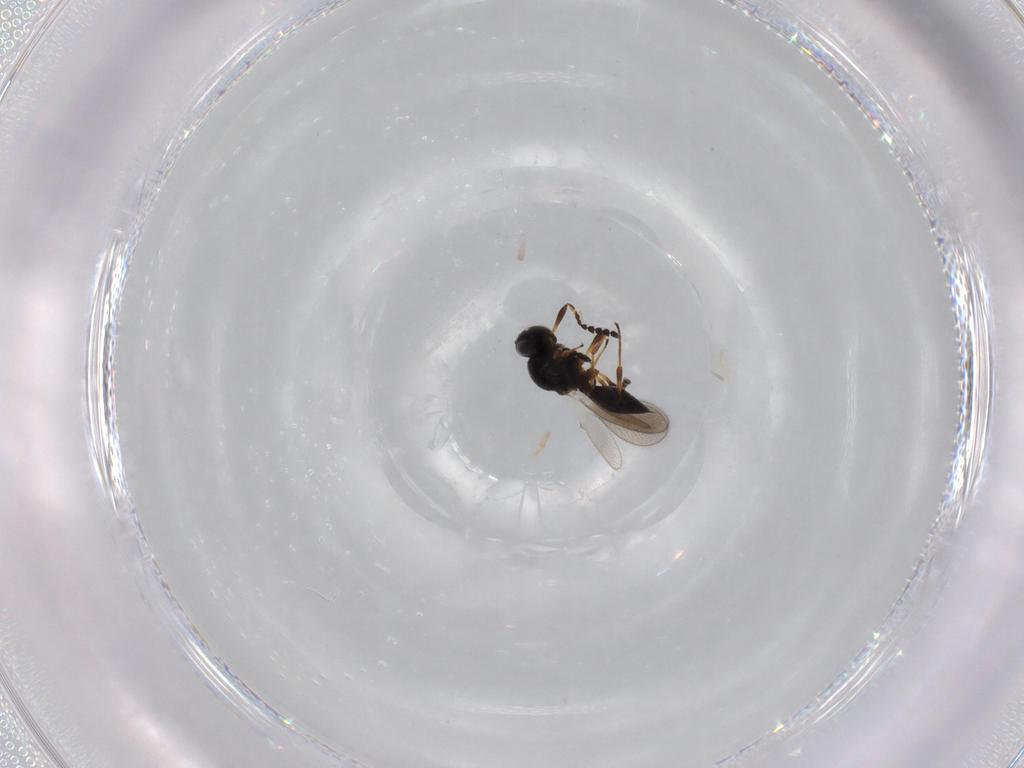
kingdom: Animalia
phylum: Arthropoda
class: Insecta
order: Hymenoptera
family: Platygastridae
